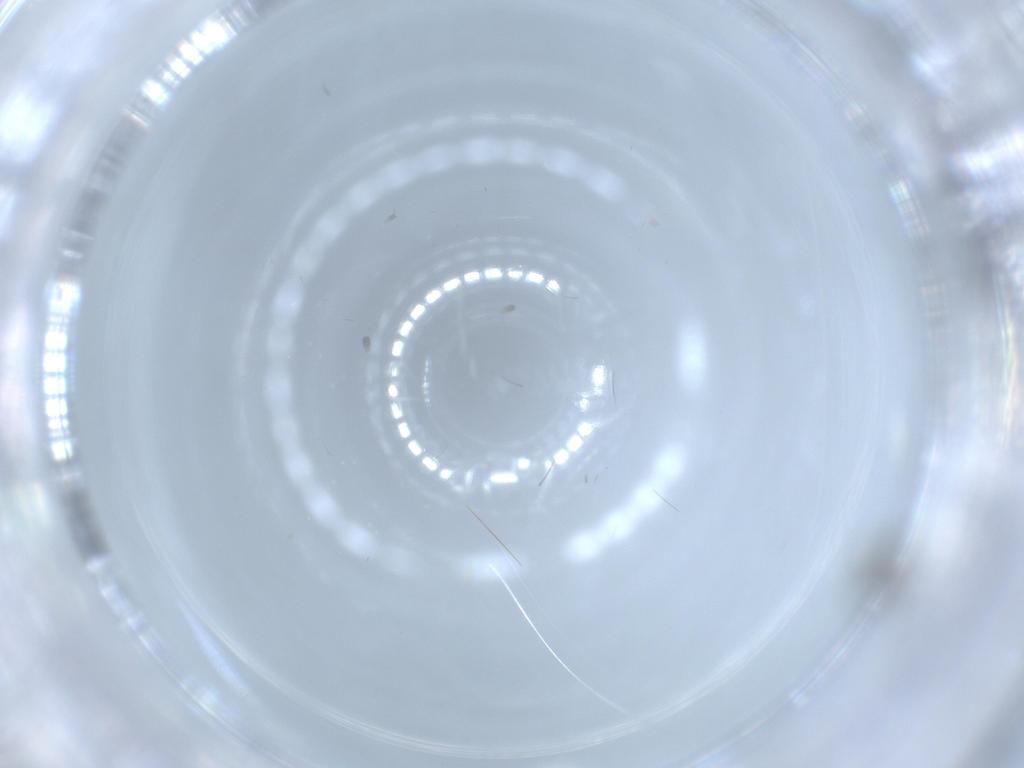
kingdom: Animalia
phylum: Arthropoda
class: Insecta
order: Diptera
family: Phoridae
